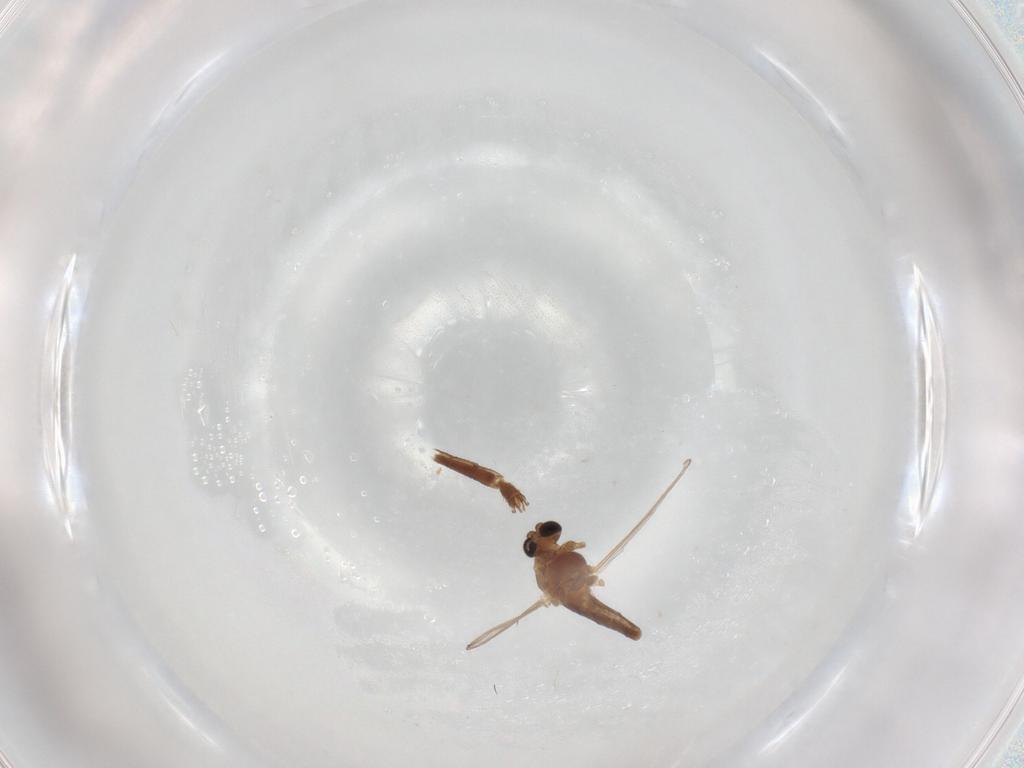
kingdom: Animalia
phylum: Arthropoda
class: Insecta
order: Diptera
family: Chironomidae
